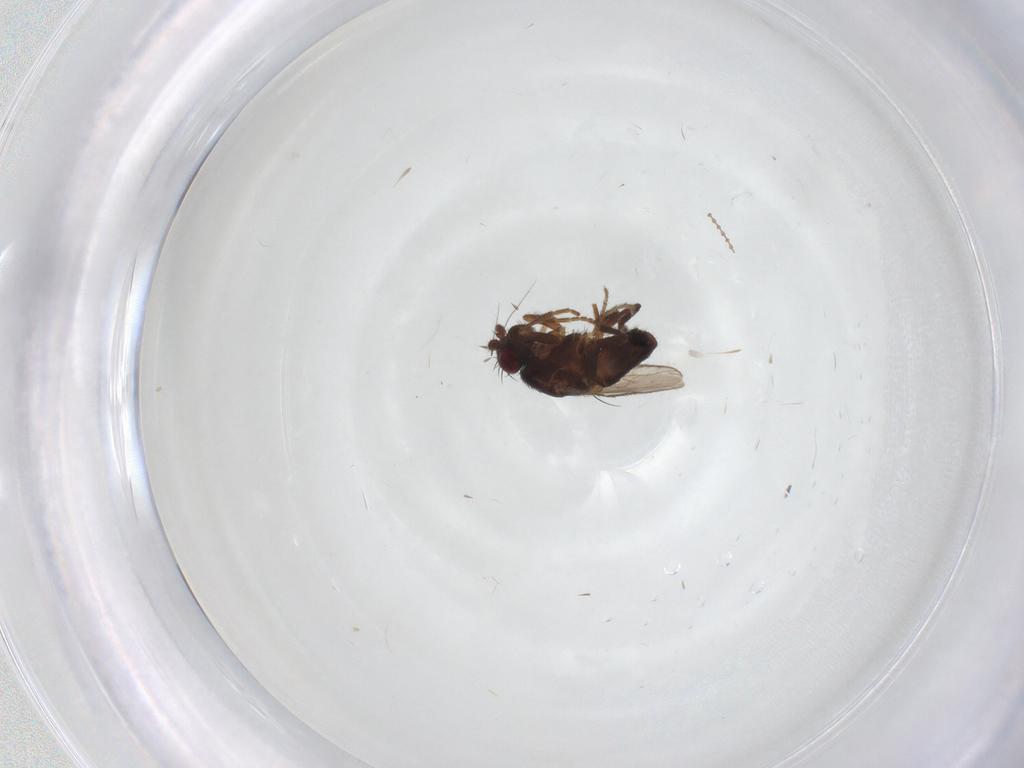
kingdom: Animalia
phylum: Arthropoda
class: Insecta
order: Diptera
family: Sphaeroceridae
